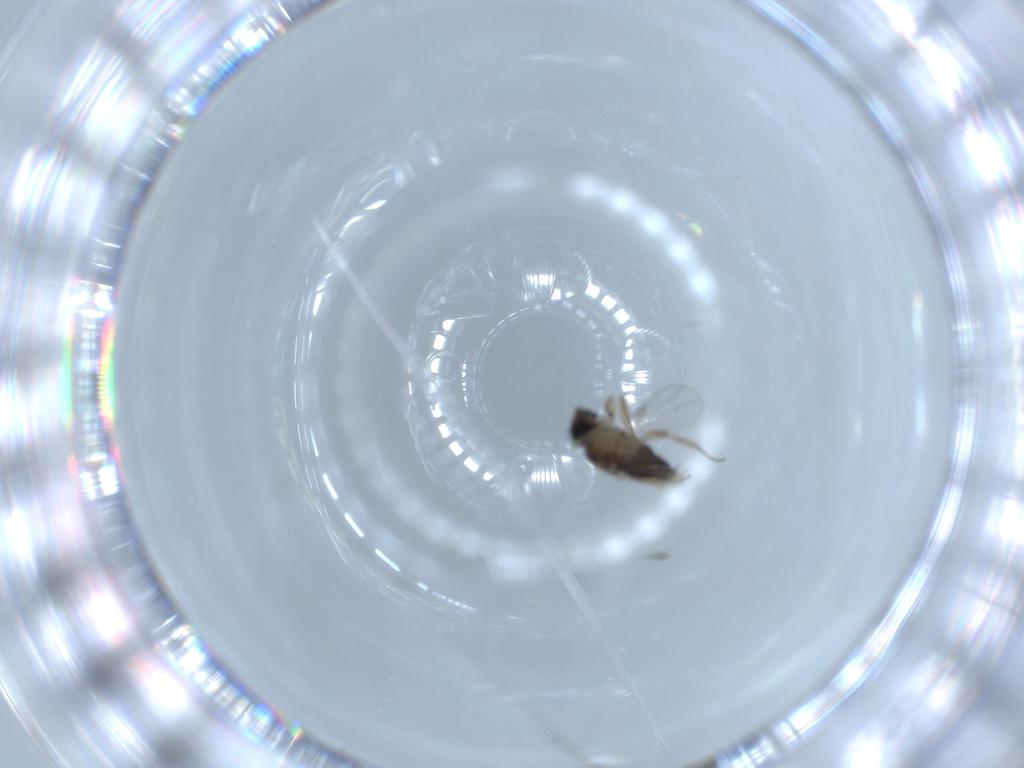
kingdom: Animalia
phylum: Arthropoda
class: Insecta
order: Diptera
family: Phoridae
